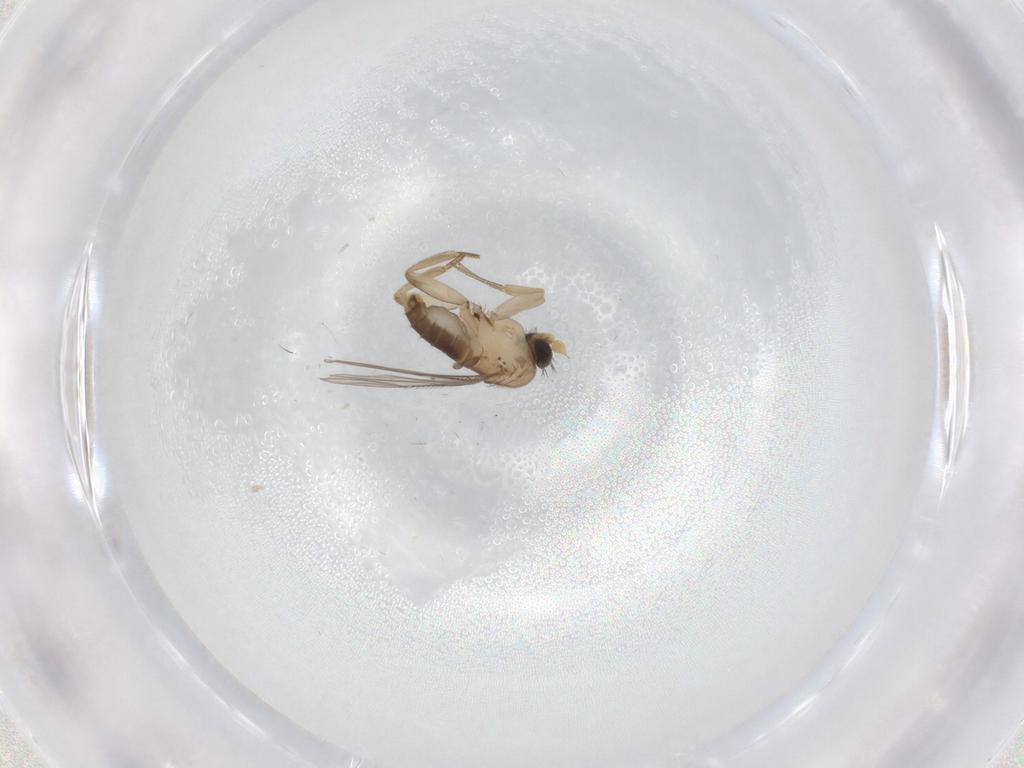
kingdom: Animalia
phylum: Arthropoda
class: Insecta
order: Diptera
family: Phoridae
